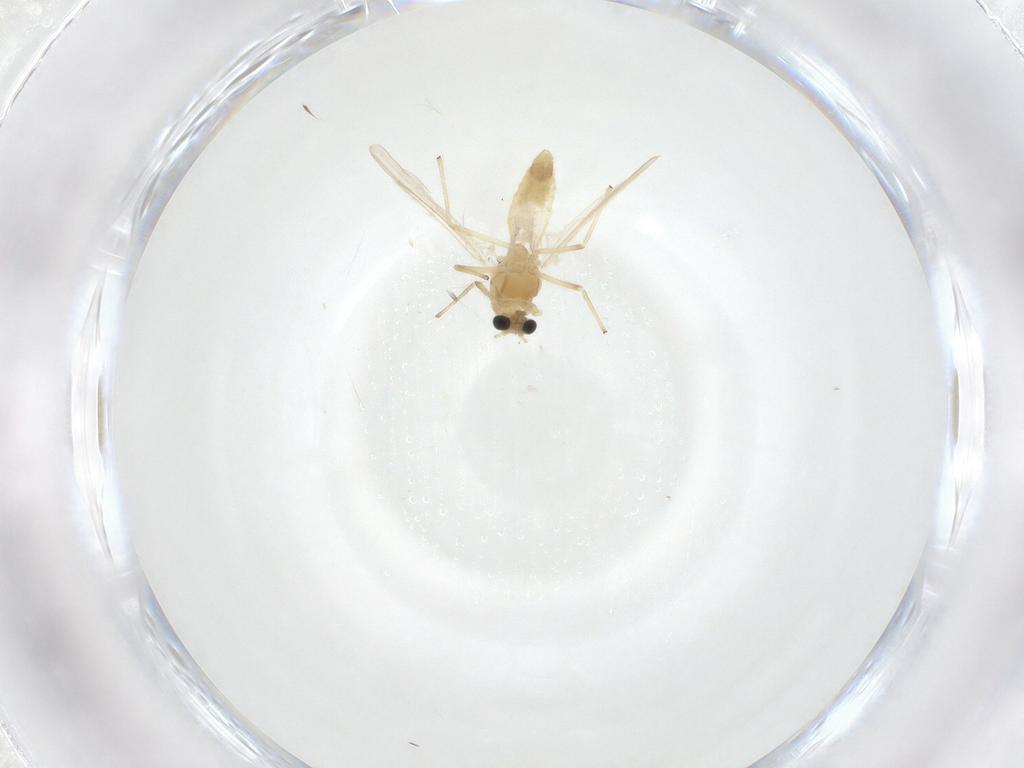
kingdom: Animalia
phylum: Arthropoda
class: Insecta
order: Diptera
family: Chironomidae
